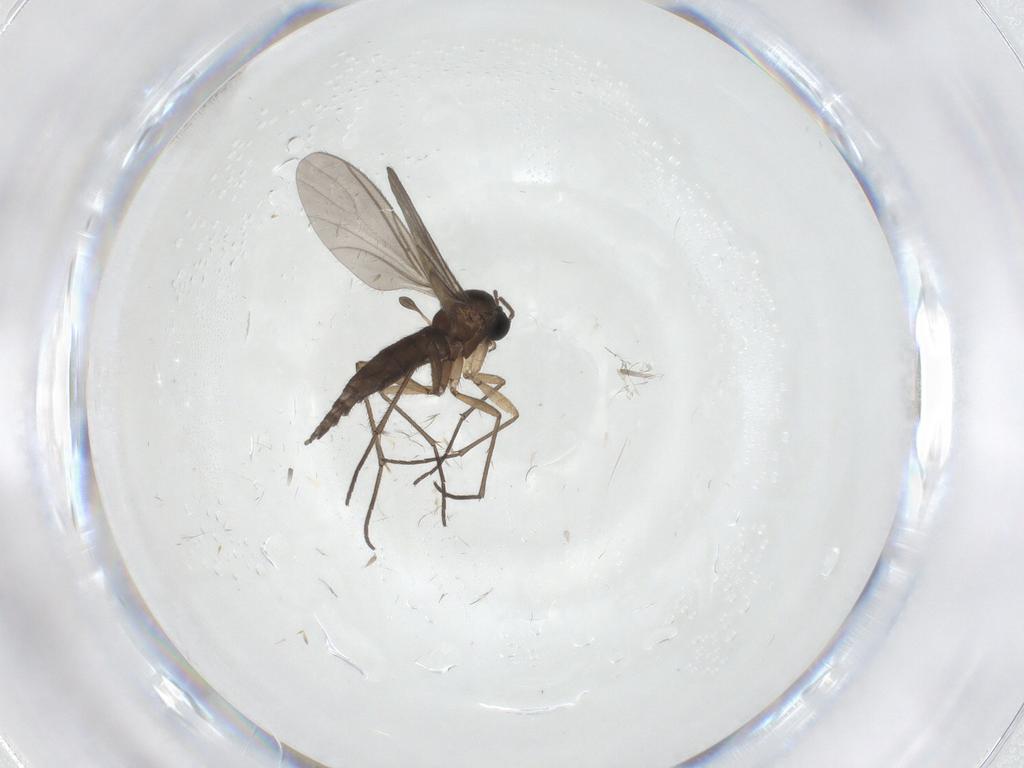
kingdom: Animalia
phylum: Arthropoda
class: Insecta
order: Diptera
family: Sciaridae
